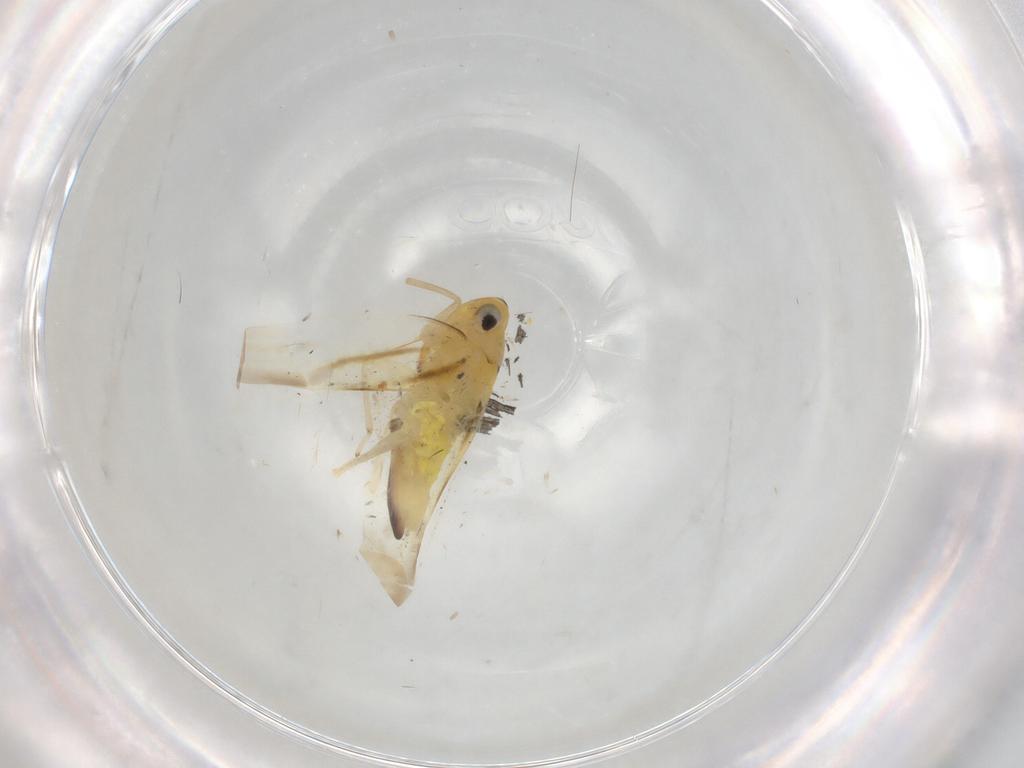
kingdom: Animalia
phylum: Arthropoda
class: Insecta
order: Hemiptera
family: Cicadellidae
